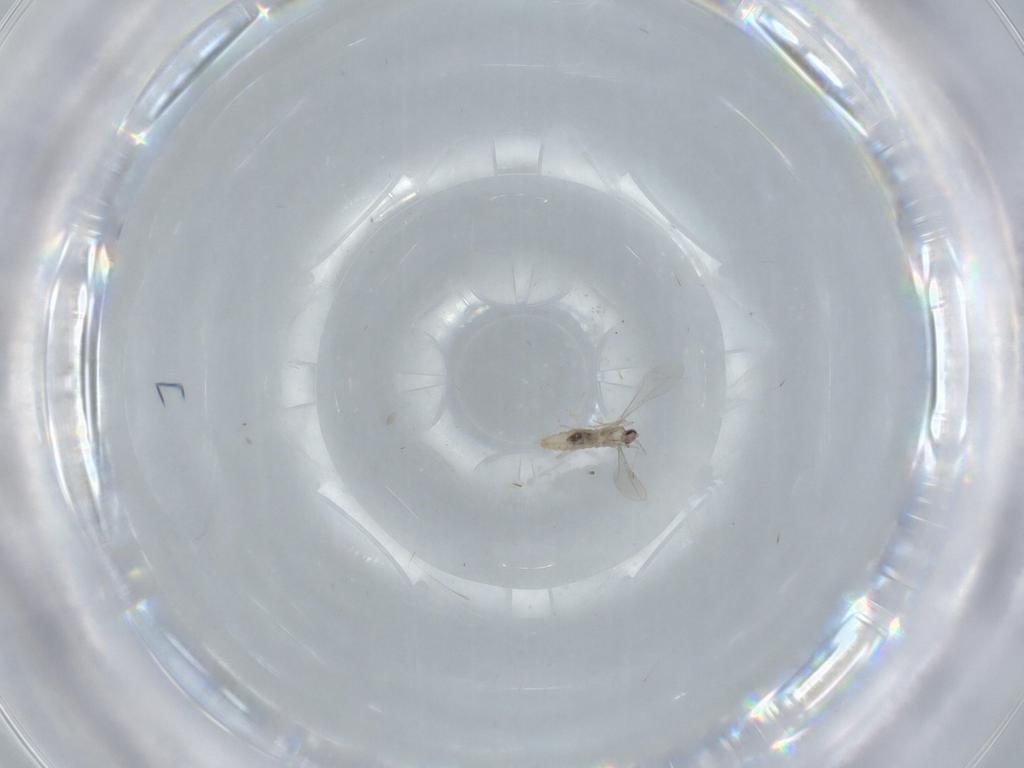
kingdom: Animalia
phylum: Arthropoda
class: Insecta
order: Diptera
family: Cecidomyiidae
